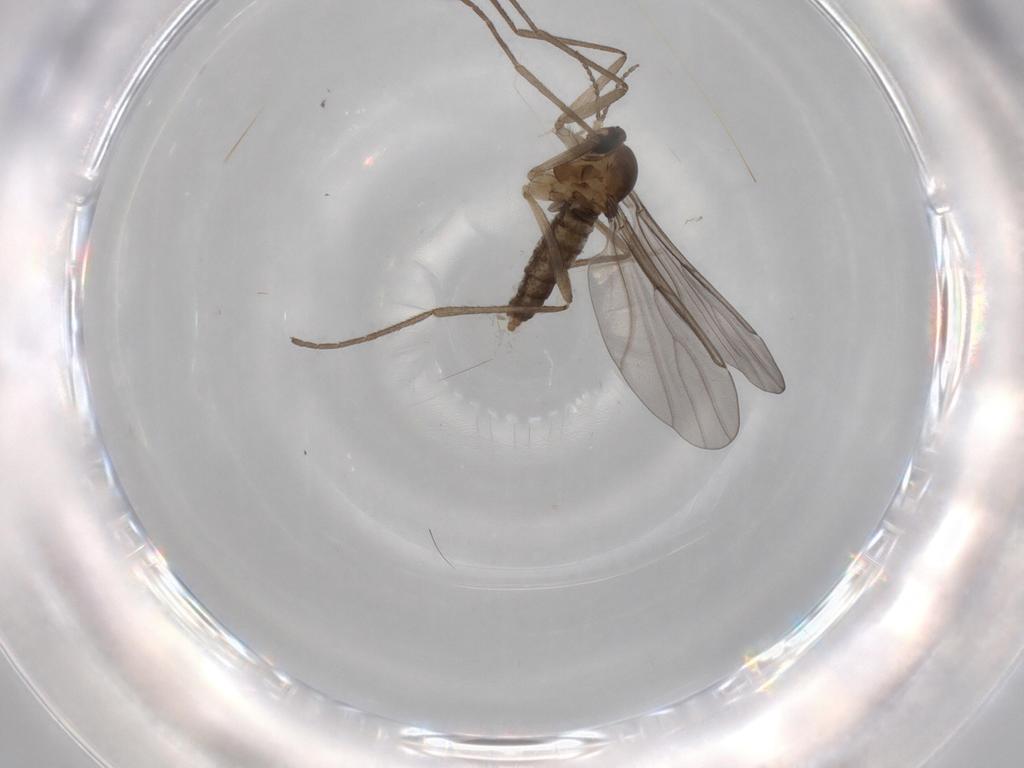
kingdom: Animalia
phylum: Arthropoda
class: Insecta
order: Diptera
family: Cecidomyiidae
